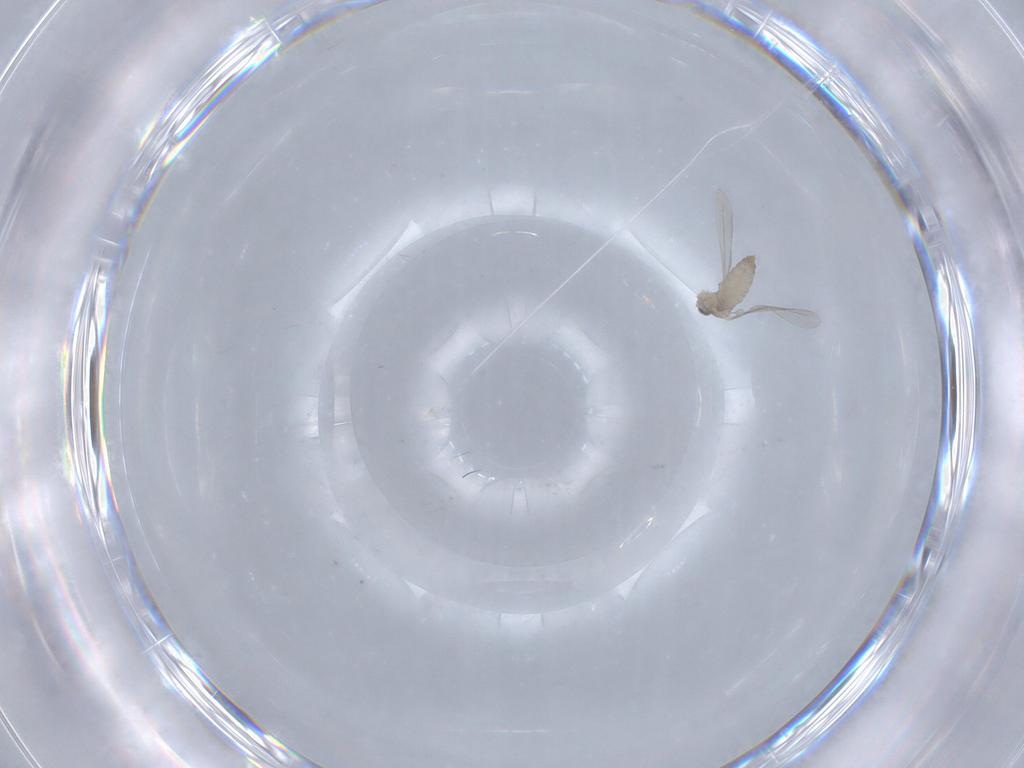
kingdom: Animalia
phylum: Arthropoda
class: Insecta
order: Diptera
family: Cecidomyiidae
